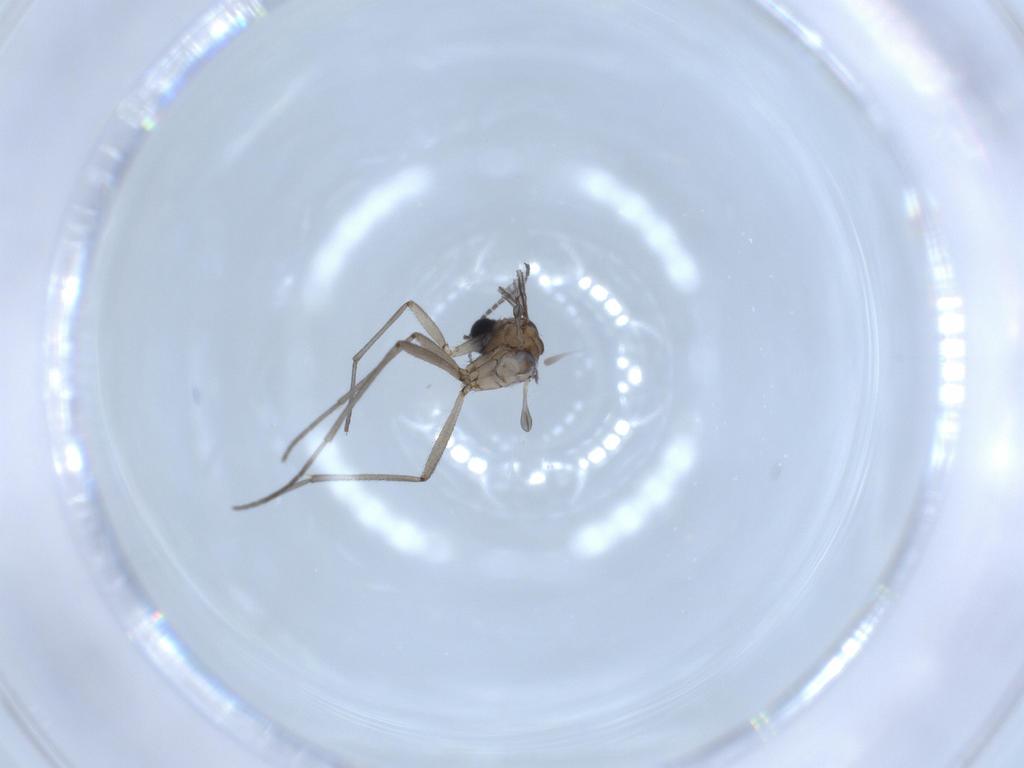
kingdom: Animalia
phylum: Arthropoda
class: Insecta
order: Diptera
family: Sciaridae
